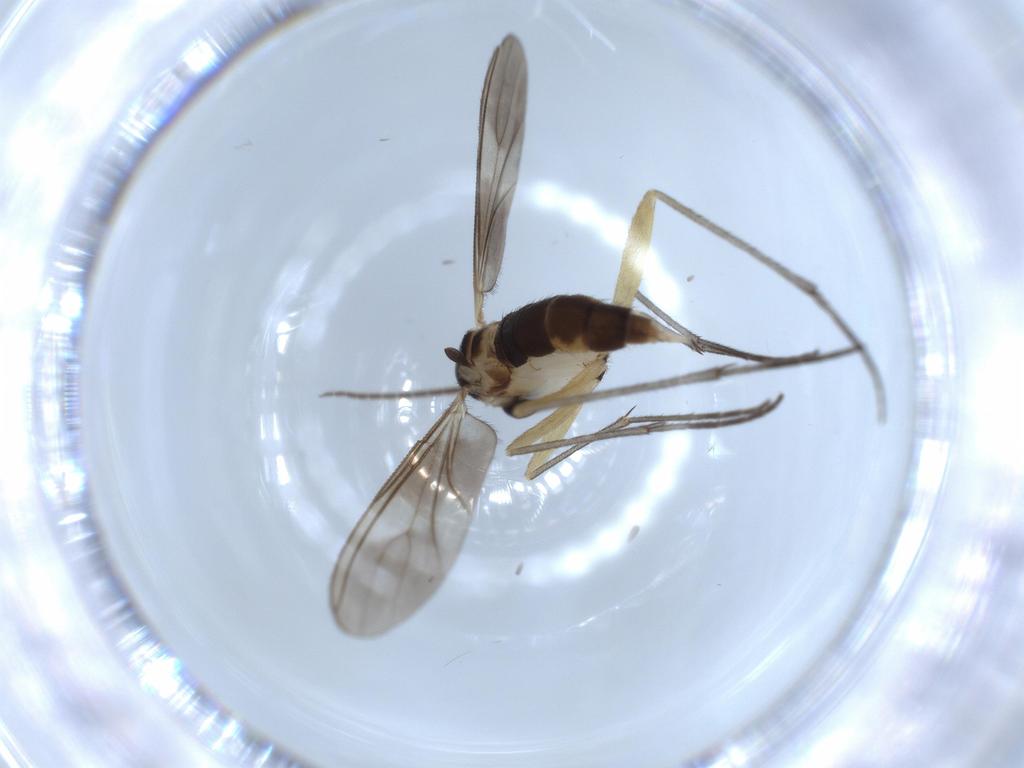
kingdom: Animalia
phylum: Arthropoda
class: Insecta
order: Diptera
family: Sciaridae
